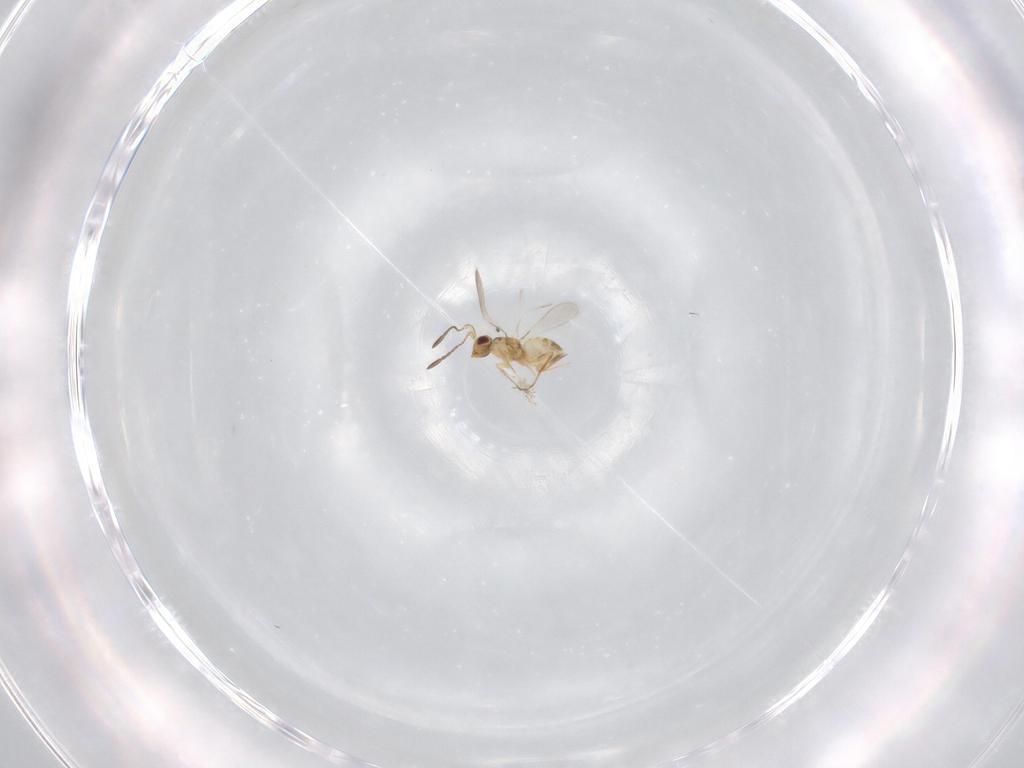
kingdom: Animalia
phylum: Arthropoda
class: Insecta
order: Hymenoptera
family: Mymaridae
